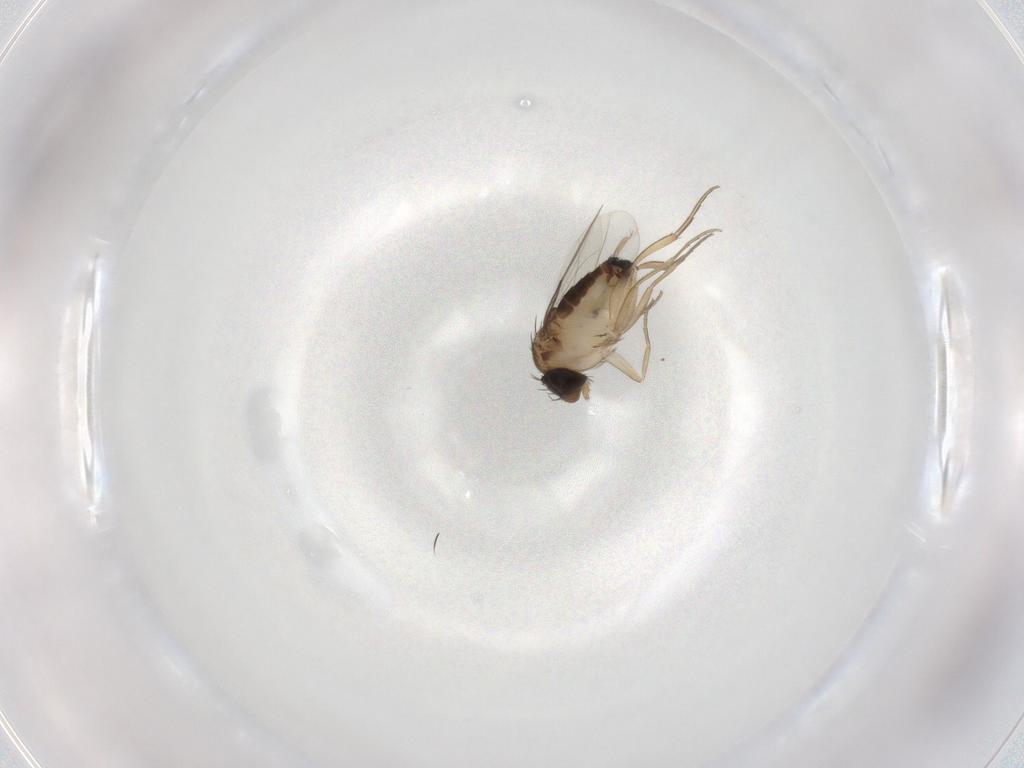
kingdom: Animalia
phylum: Arthropoda
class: Insecta
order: Diptera
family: Phoridae
